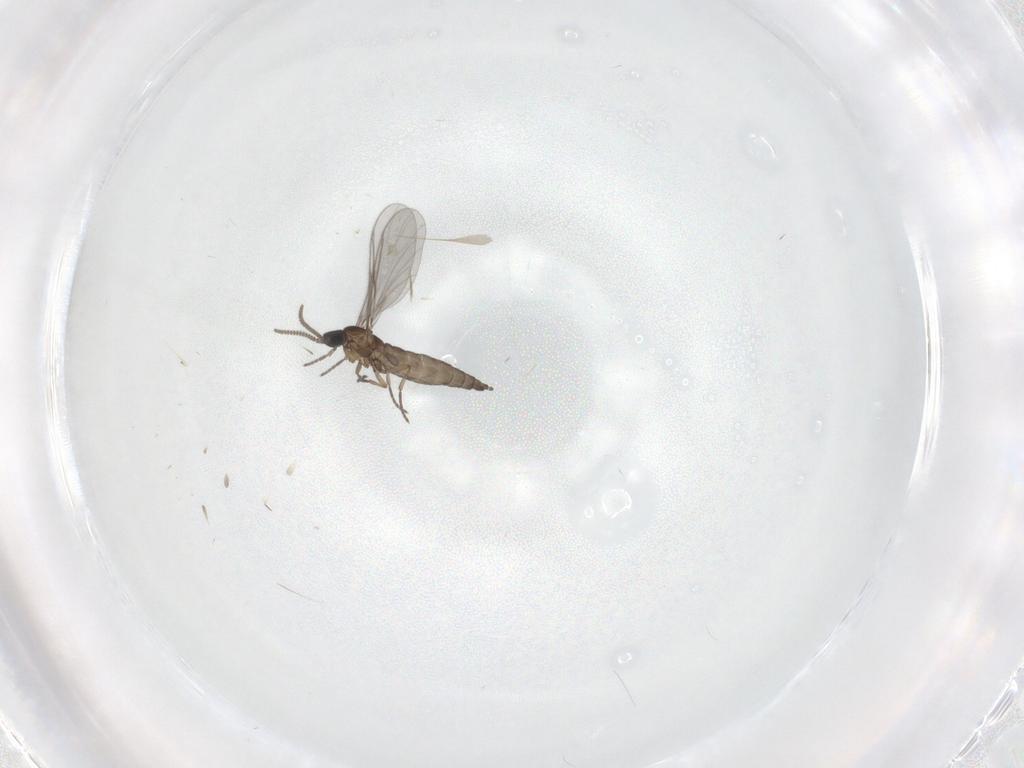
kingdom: Animalia
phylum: Arthropoda
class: Insecta
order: Diptera
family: Sciaridae
